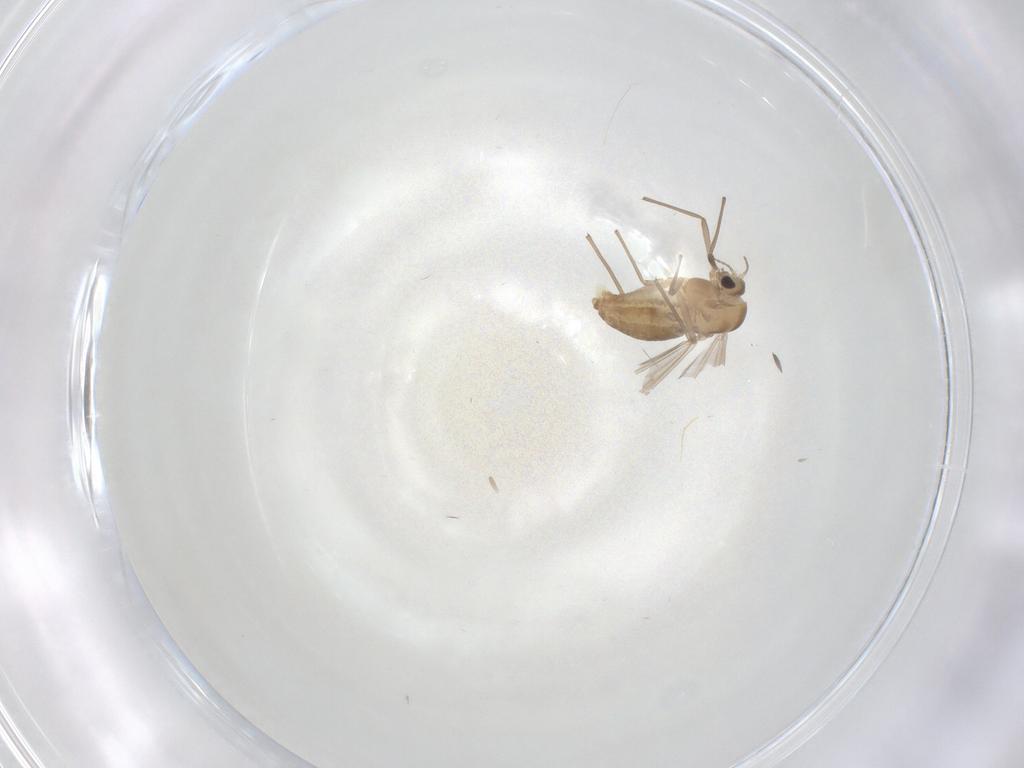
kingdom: Animalia
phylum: Arthropoda
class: Insecta
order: Diptera
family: Chironomidae
